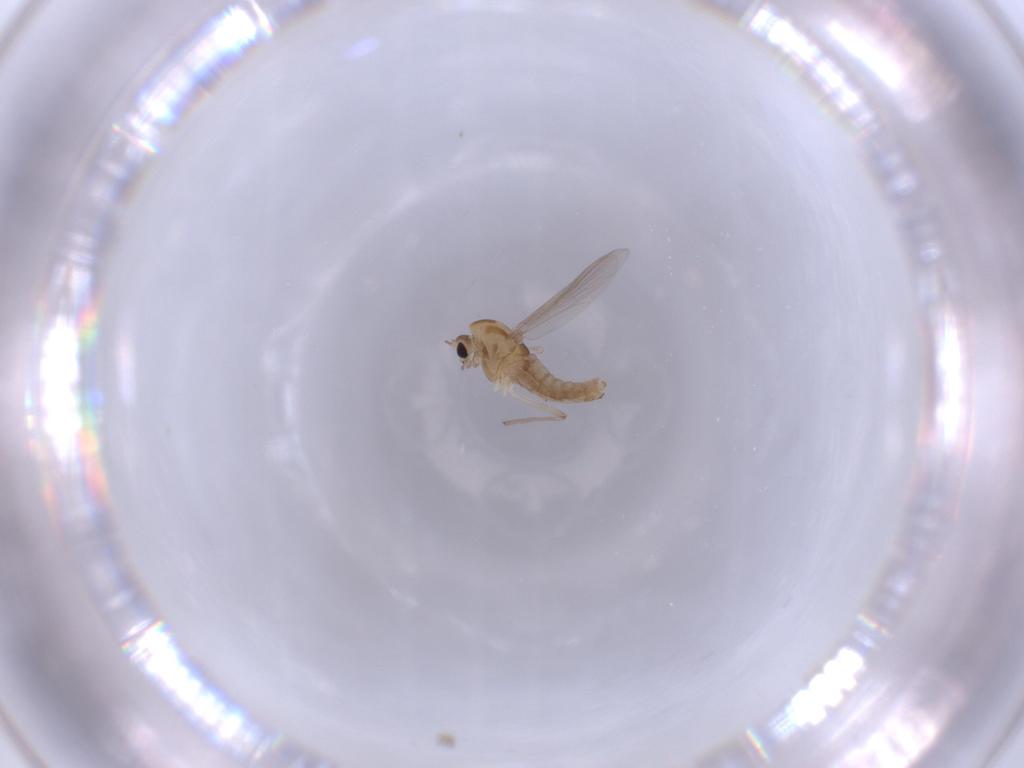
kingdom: Animalia
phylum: Arthropoda
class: Insecta
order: Diptera
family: Chironomidae
